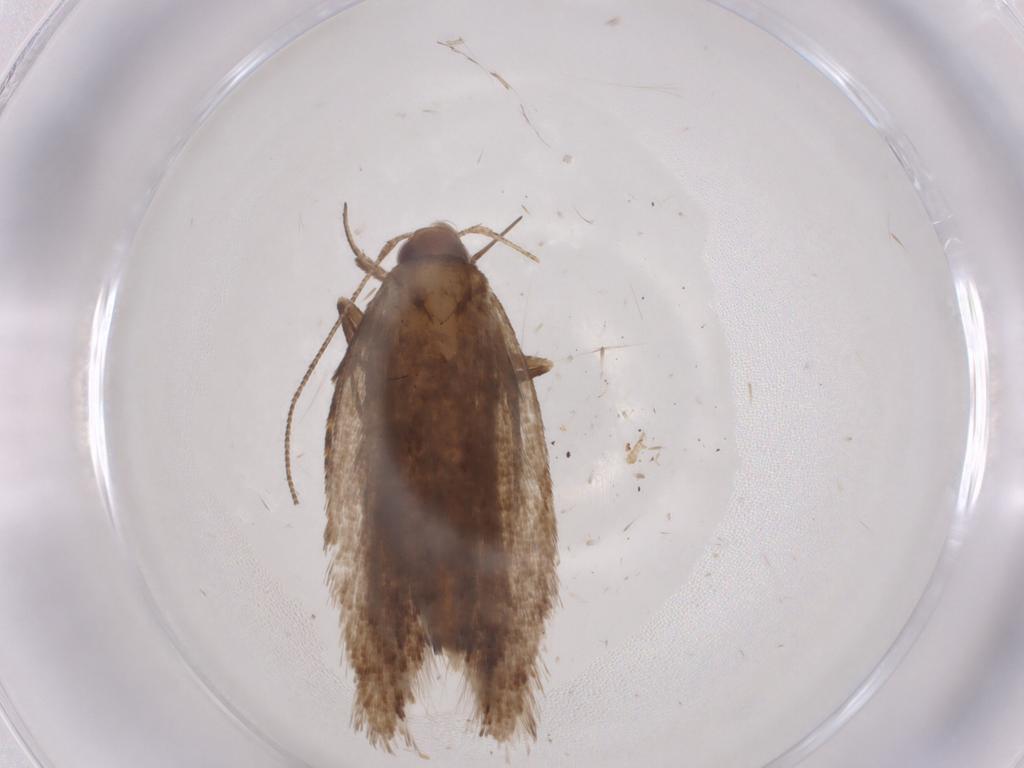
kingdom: Animalia
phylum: Arthropoda
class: Insecta
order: Lepidoptera
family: Gelechiidae
